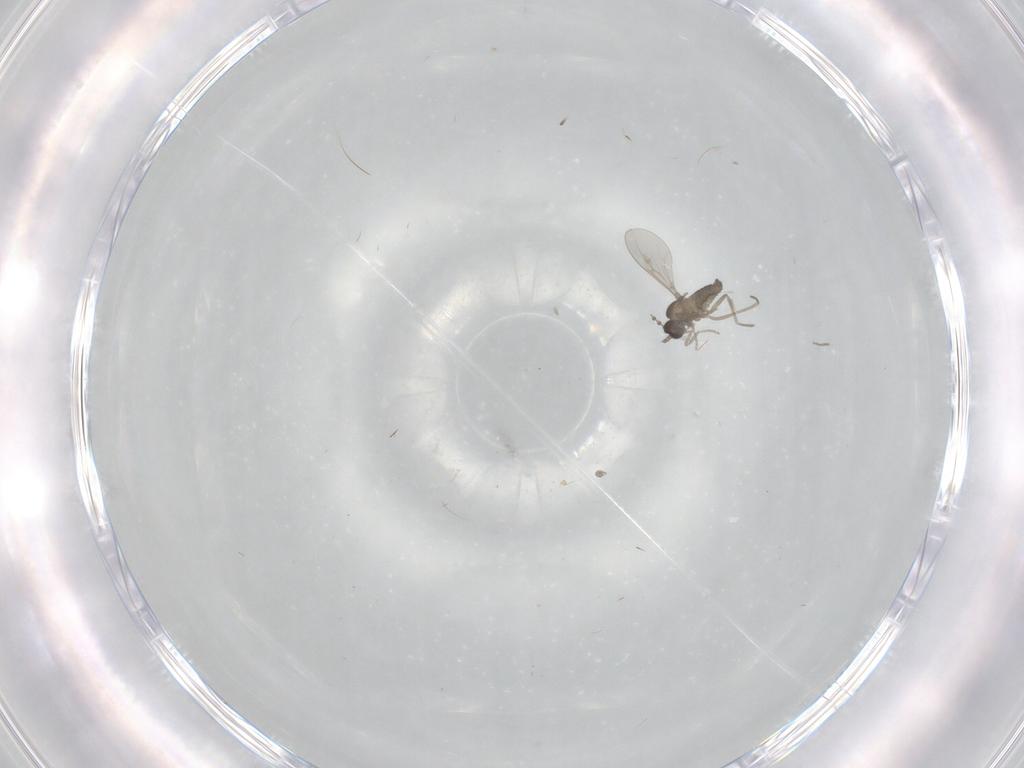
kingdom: Animalia
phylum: Arthropoda
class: Insecta
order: Diptera
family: Cecidomyiidae
